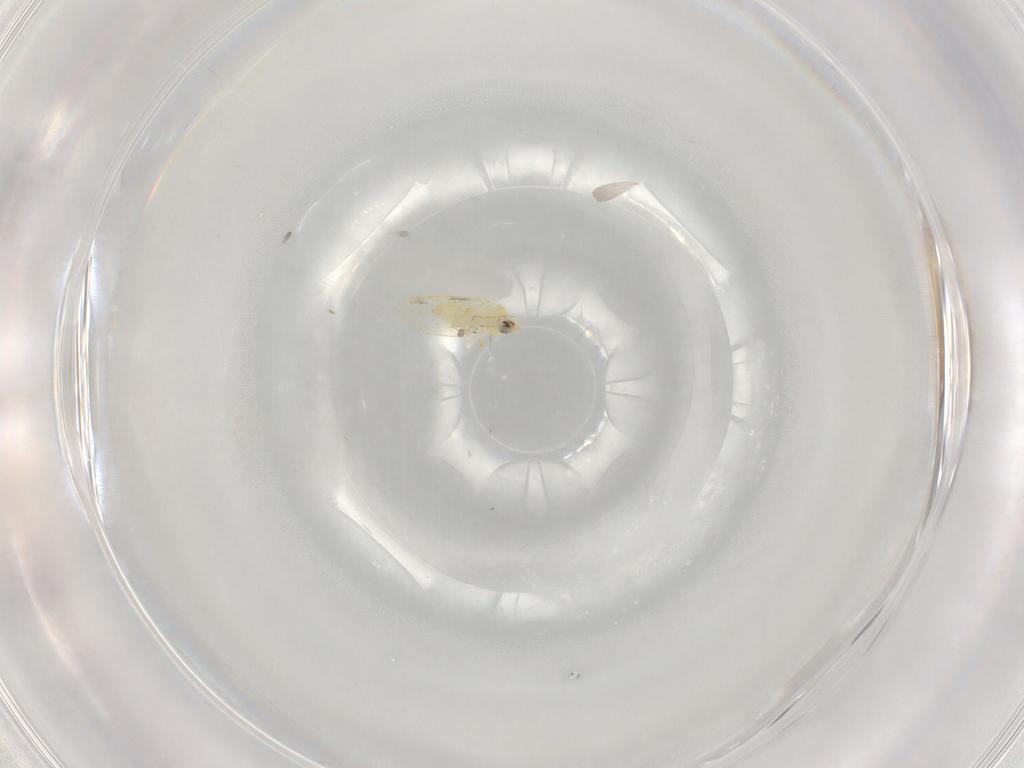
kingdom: Animalia
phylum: Arthropoda
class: Insecta
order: Hemiptera
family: Aleyrodidae
